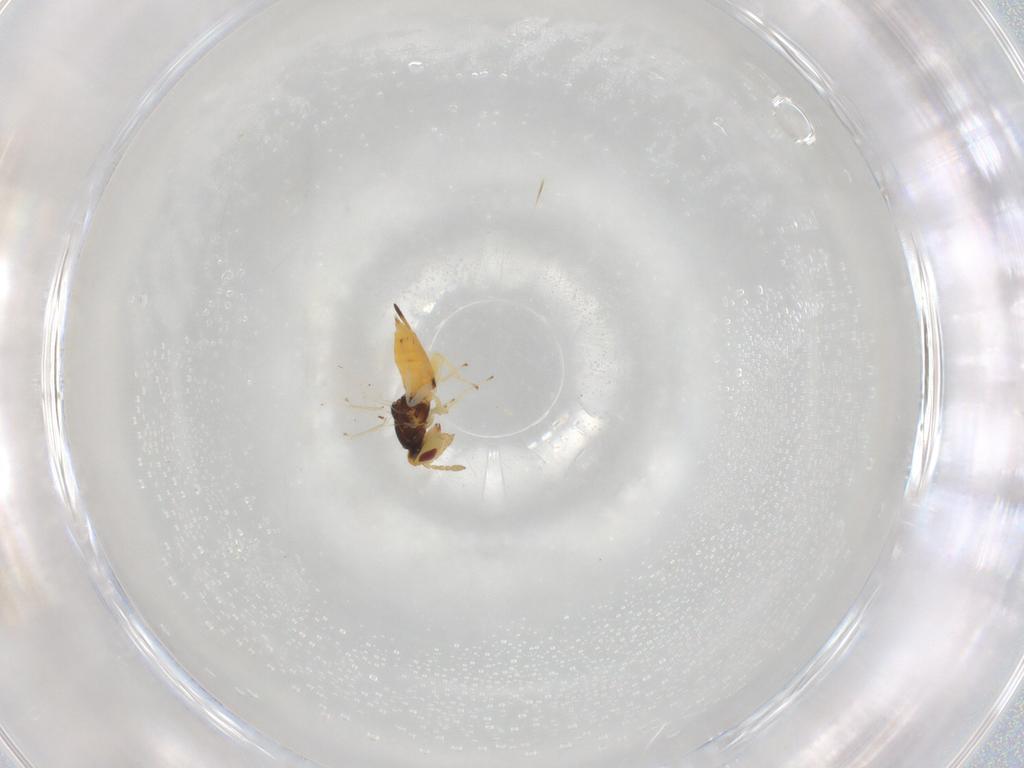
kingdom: Animalia
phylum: Arthropoda
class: Insecta
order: Hymenoptera
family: Eulophidae
